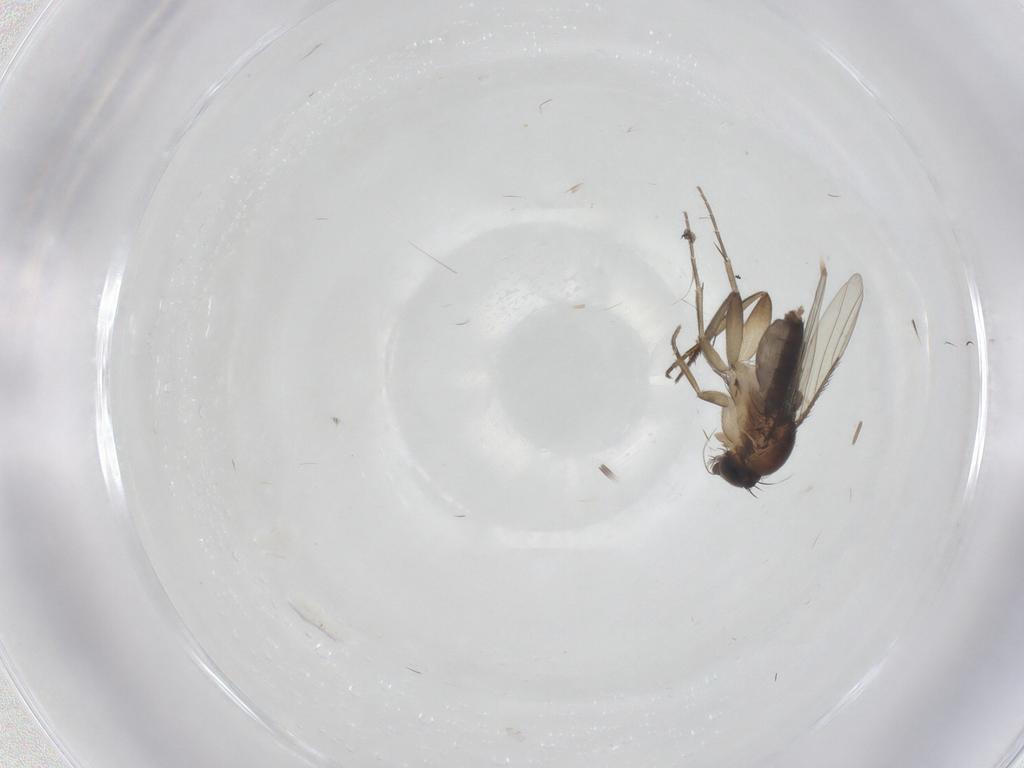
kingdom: Animalia
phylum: Arthropoda
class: Insecta
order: Diptera
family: Phoridae
